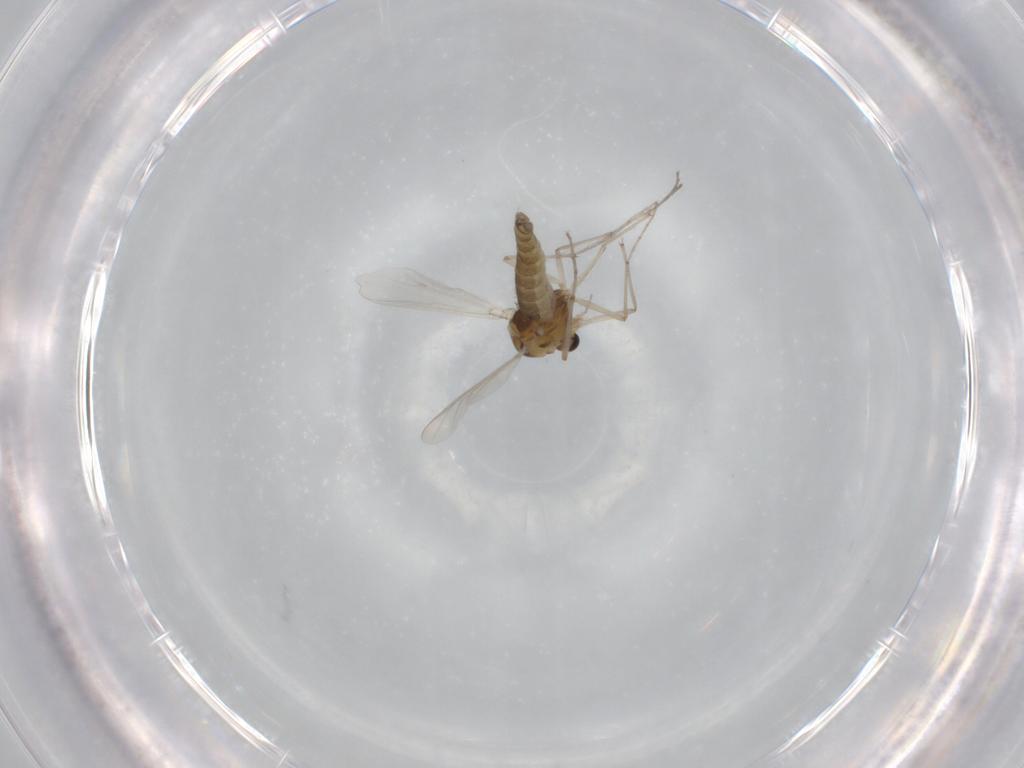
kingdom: Animalia
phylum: Arthropoda
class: Insecta
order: Diptera
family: Chironomidae
